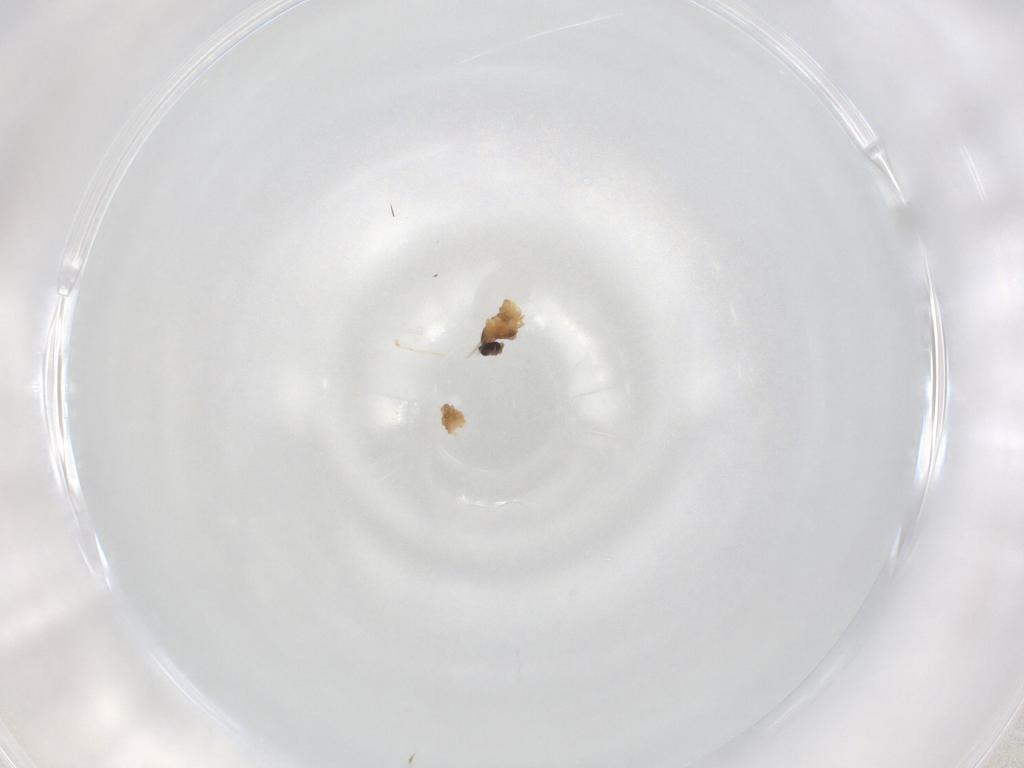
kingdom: Animalia
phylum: Arthropoda
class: Insecta
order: Diptera
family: Cecidomyiidae
